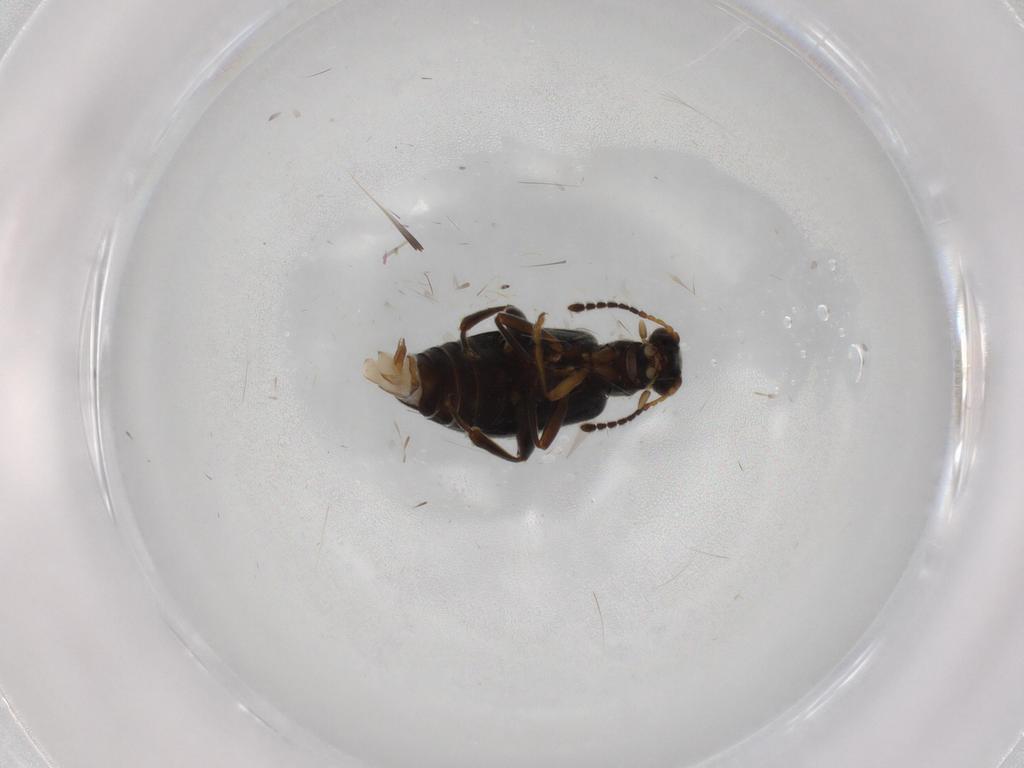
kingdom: Animalia
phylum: Arthropoda
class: Insecta
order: Coleoptera
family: Aderidae
